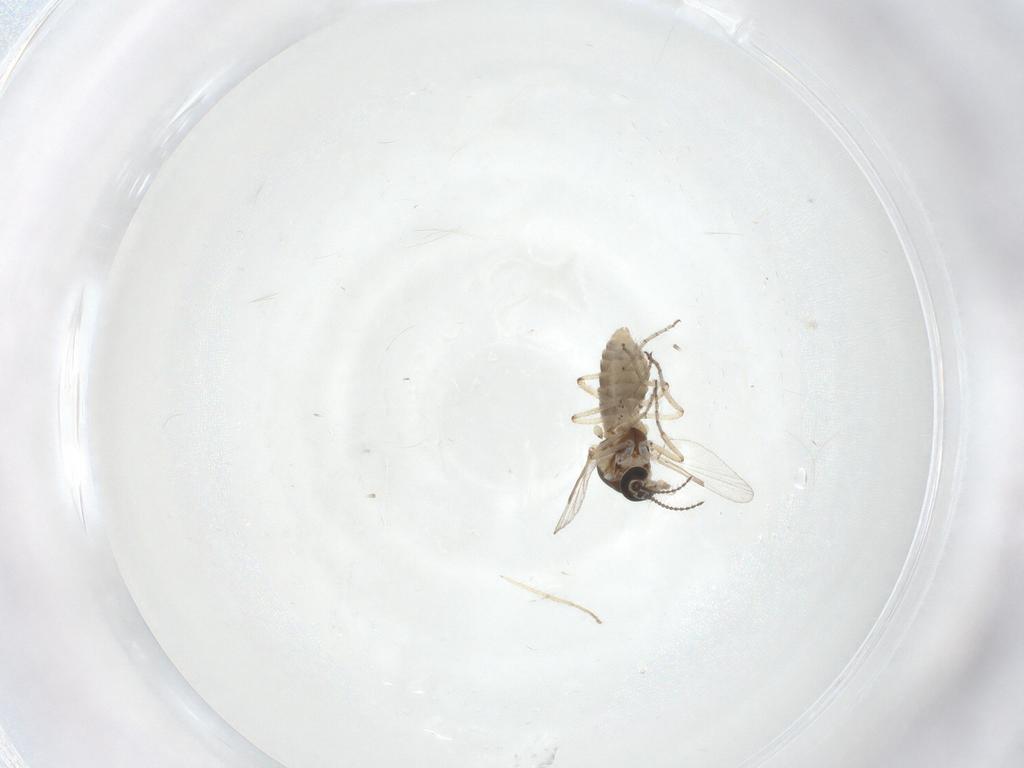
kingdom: Animalia
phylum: Arthropoda
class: Insecta
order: Diptera
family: Ceratopogonidae
